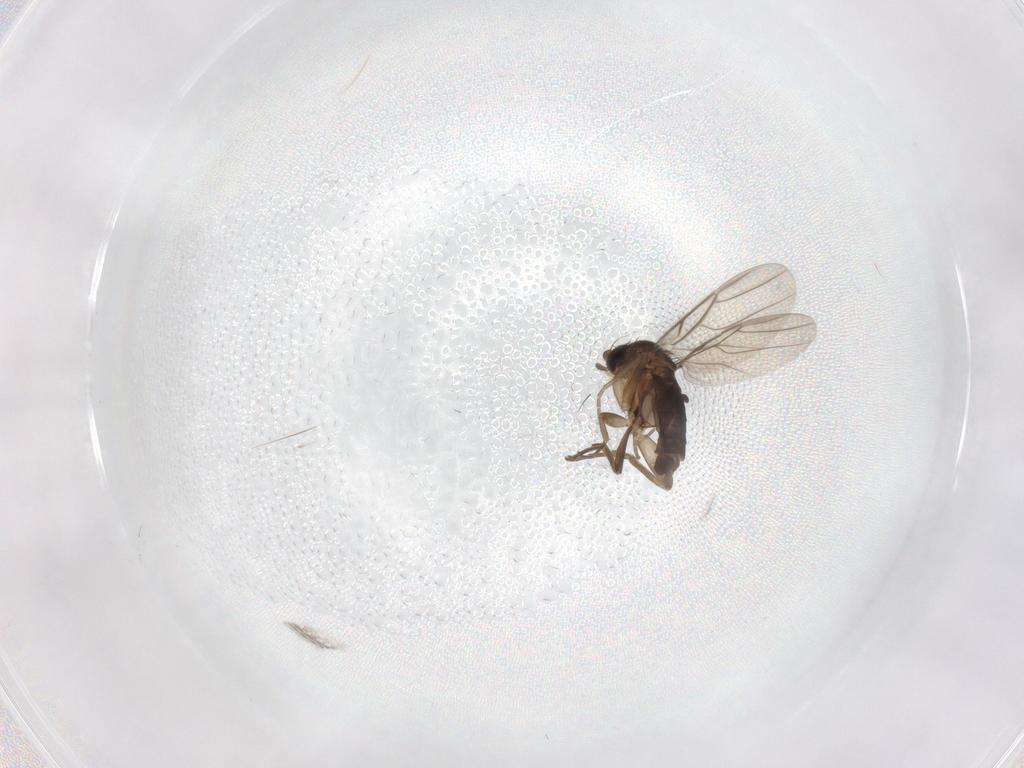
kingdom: Animalia
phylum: Arthropoda
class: Insecta
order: Diptera
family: Phoridae
